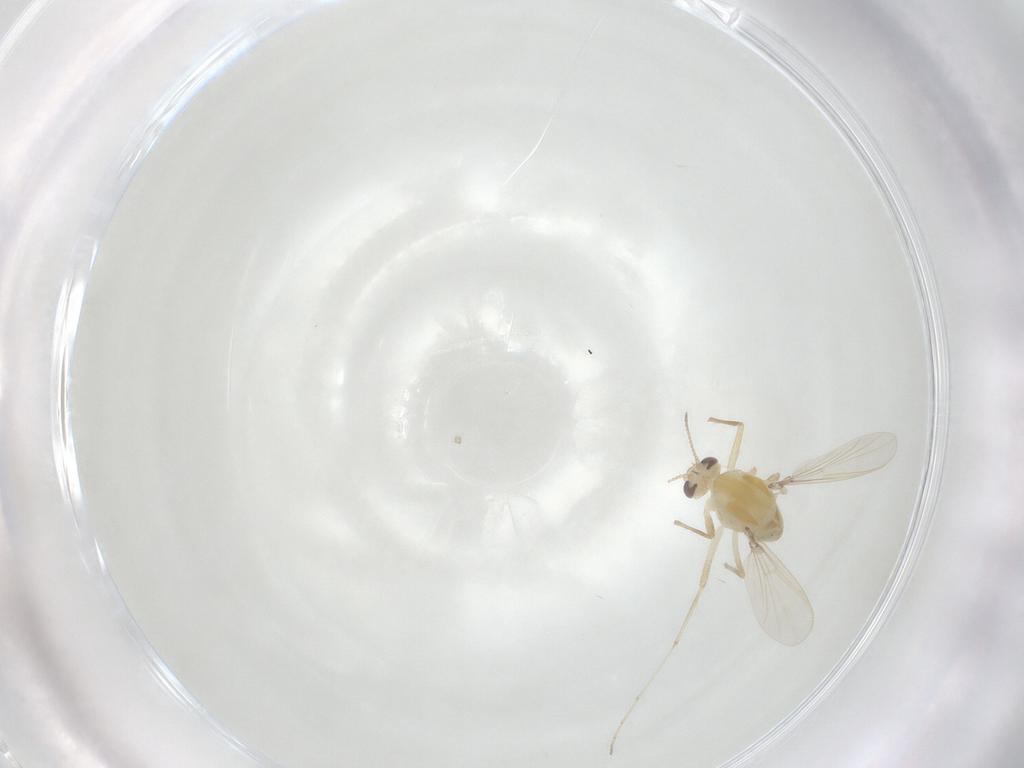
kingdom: Animalia
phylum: Arthropoda
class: Insecta
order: Diptera
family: Chironomidae
